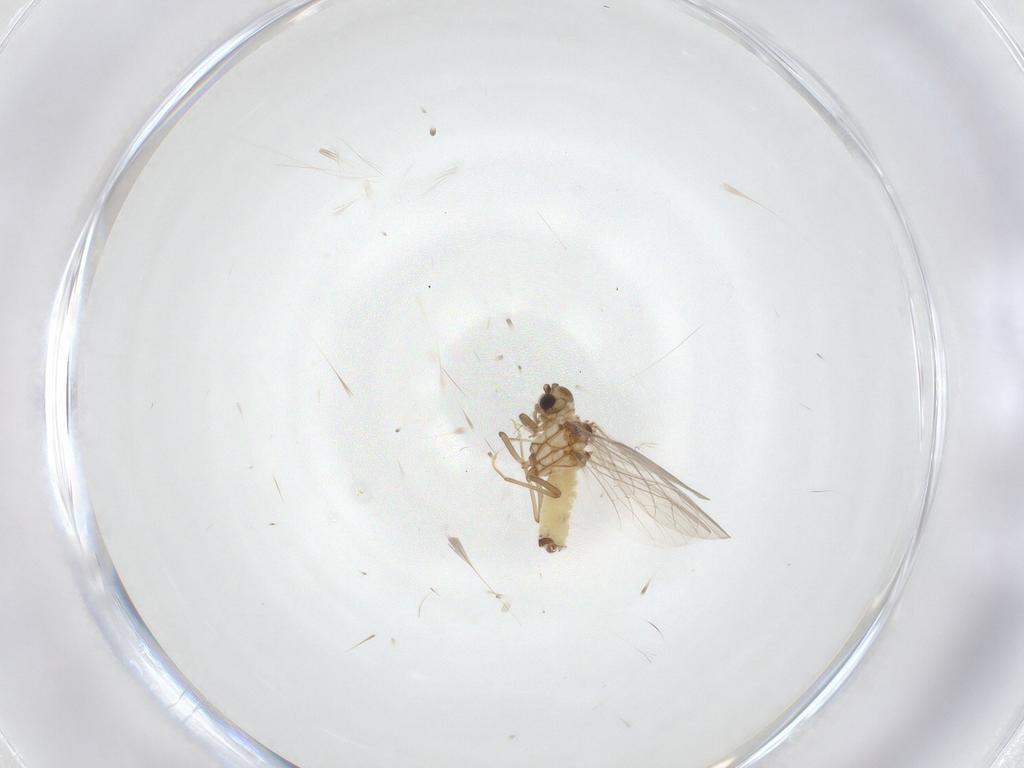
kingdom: Animalia
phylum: Arthropoda
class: Insecta
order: Neuroptera
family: Coniopterygidae
